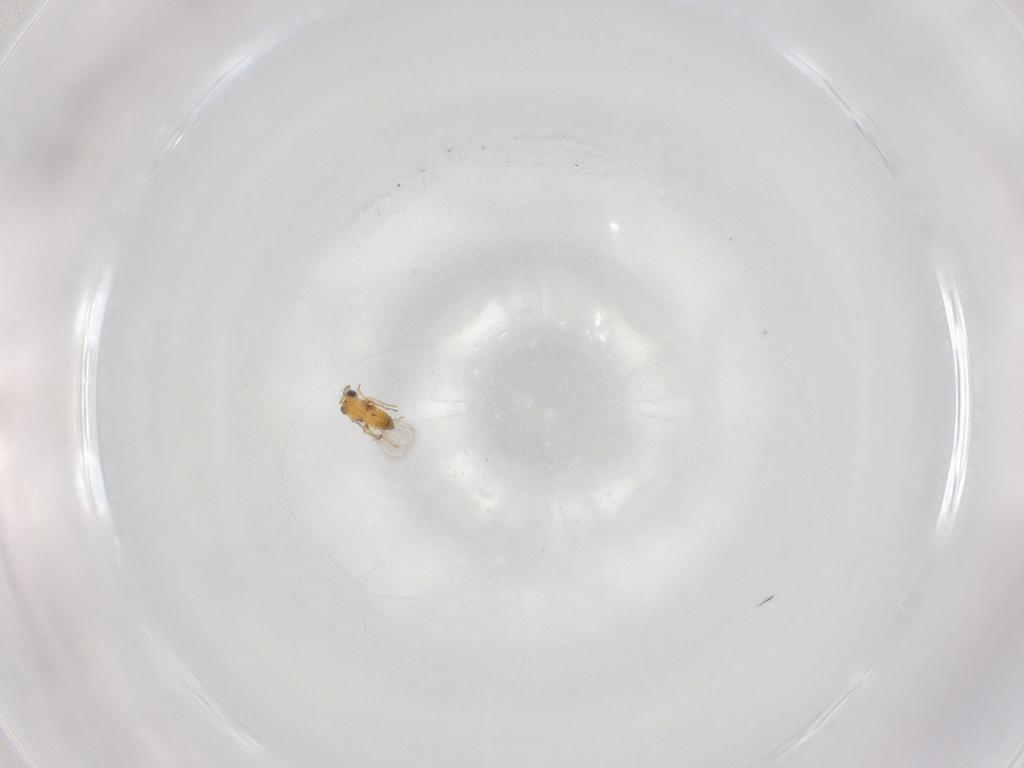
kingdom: Animalia
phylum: Arthropoda
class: Insecta
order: Hymenoptera
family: Trichogrammatidae
